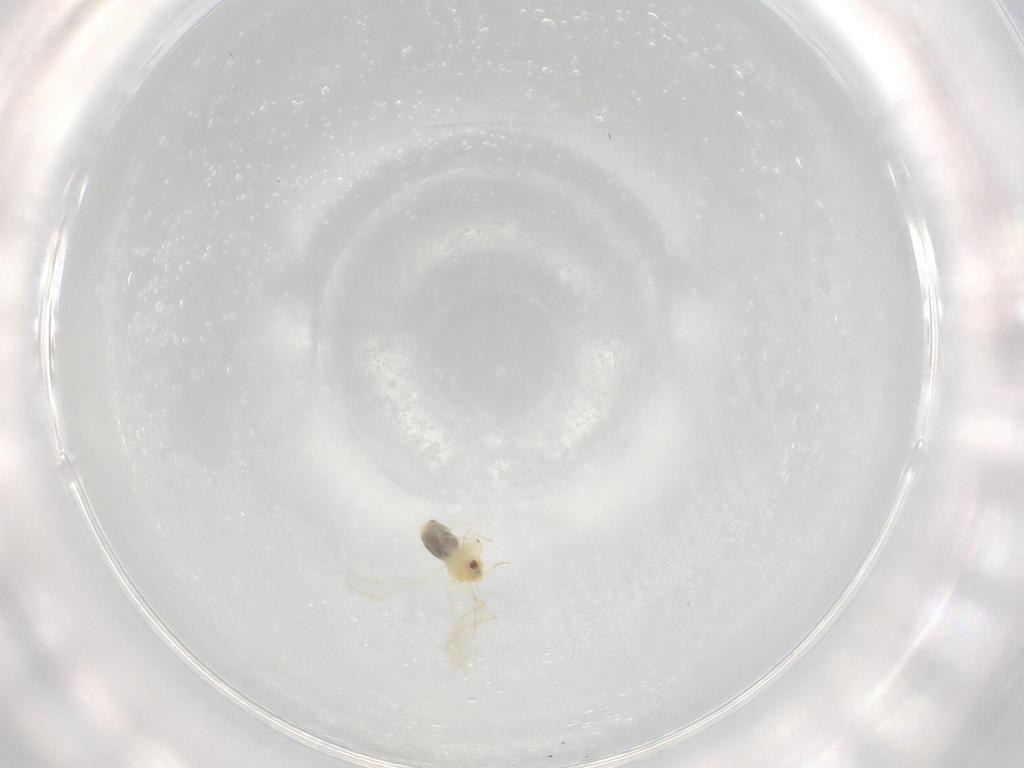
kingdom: Animalia
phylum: Arthropoda
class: Insecta
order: Hemiptera
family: Aleyrodidae
